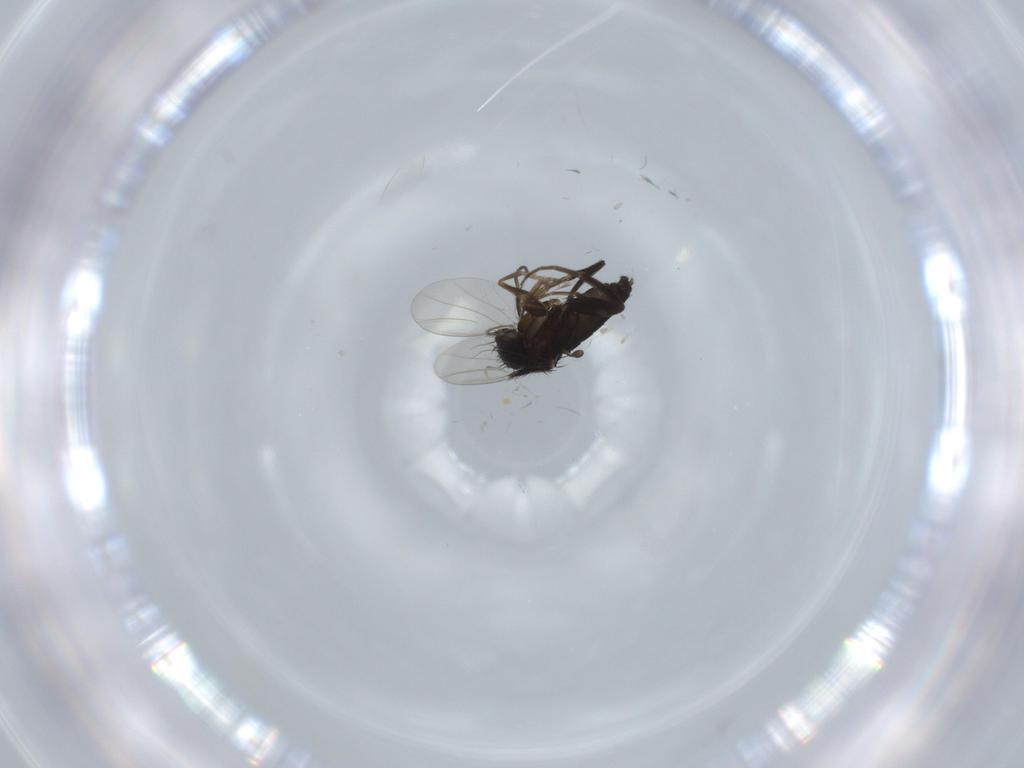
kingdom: Animalia
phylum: Arthropoda
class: Insecta
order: Diptera
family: Phoridae
